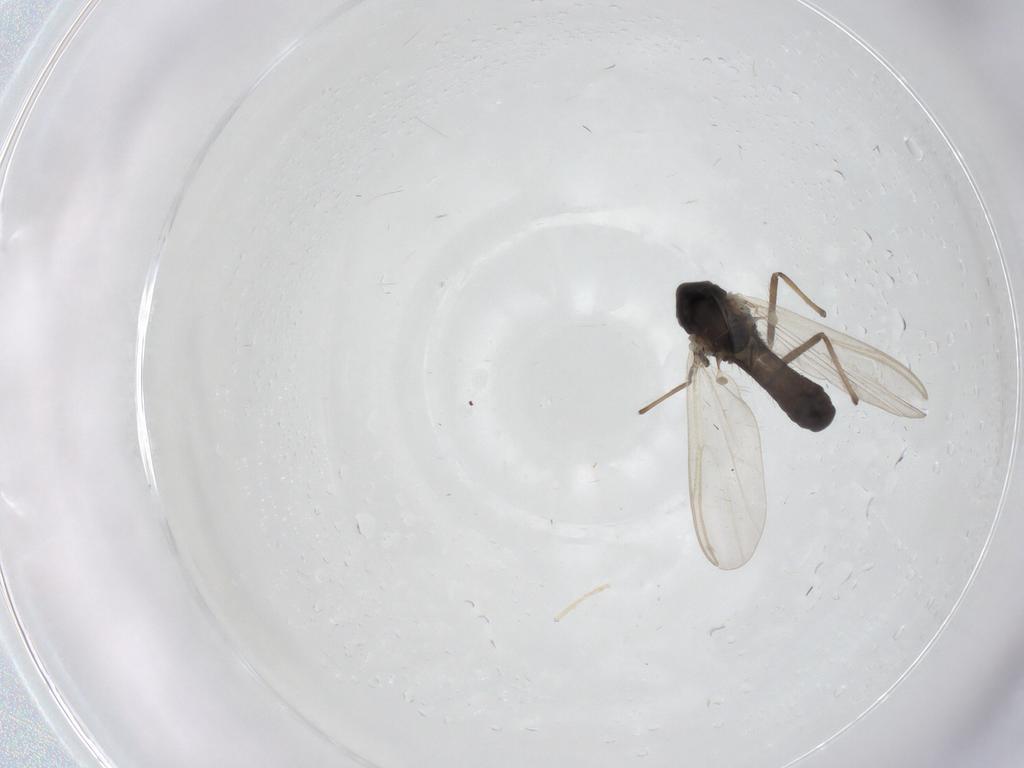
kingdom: Animalia
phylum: Arthropoda
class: Insecta
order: Diptera
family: Chironomidae
